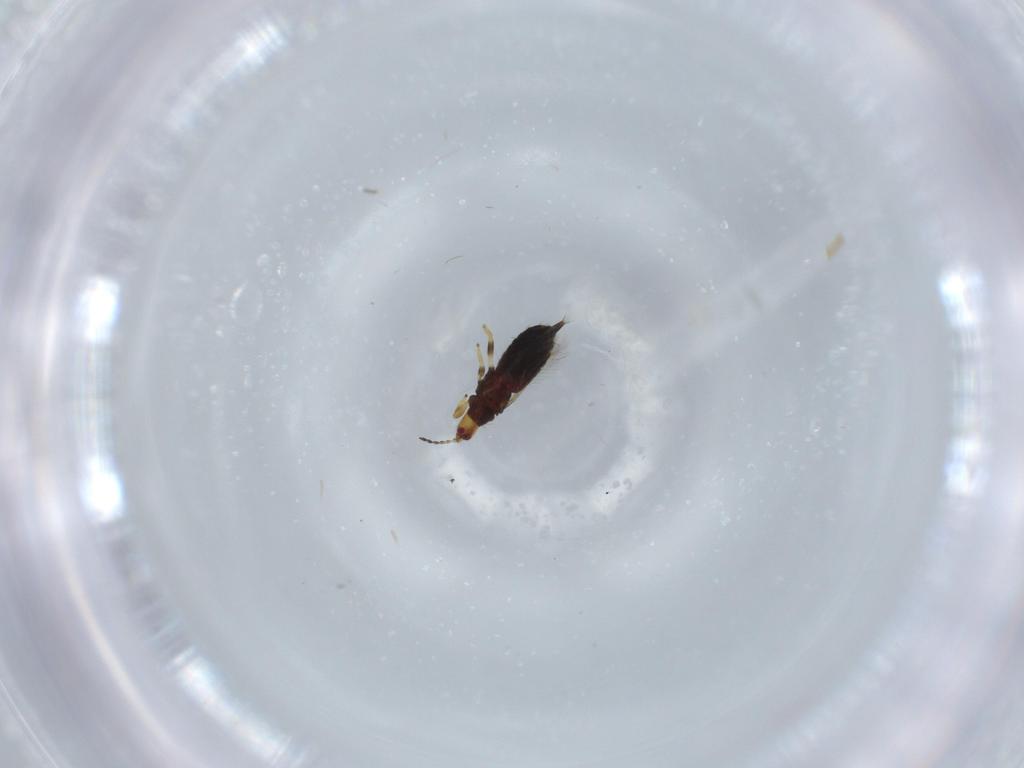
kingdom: Animalia
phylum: Arthropoda
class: Insecta
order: Thysanoptera
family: Phlaeothripidae
